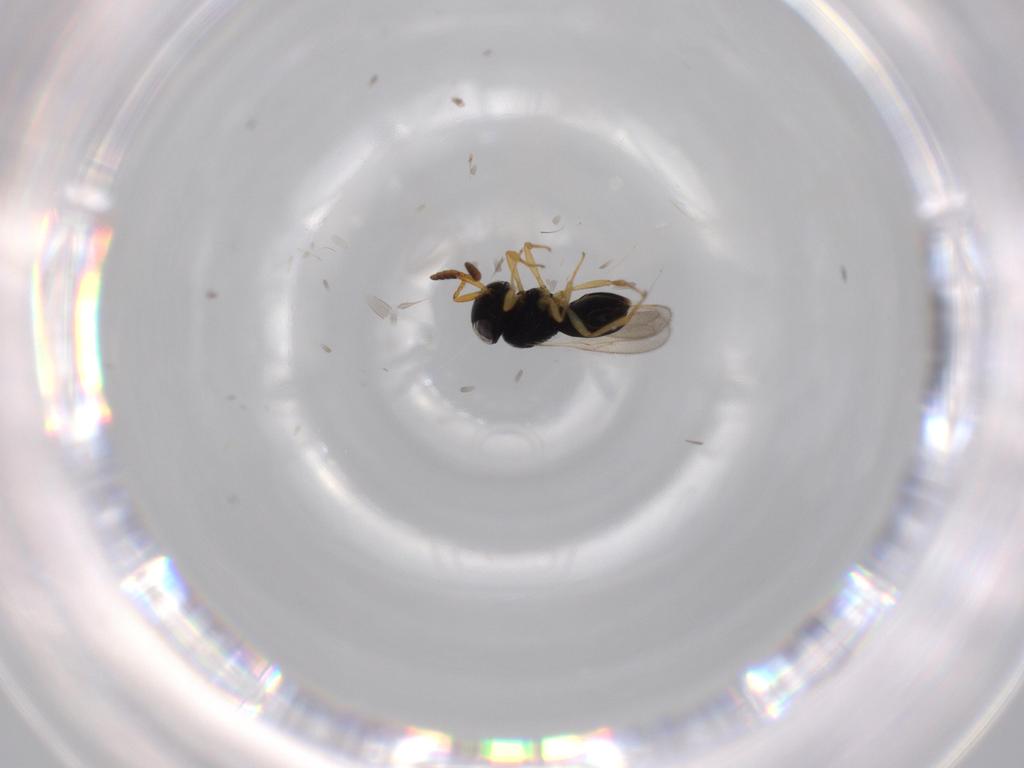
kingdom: Animalia
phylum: Arthropoda
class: Insecta
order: Hymenoptera
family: Scelionidae
